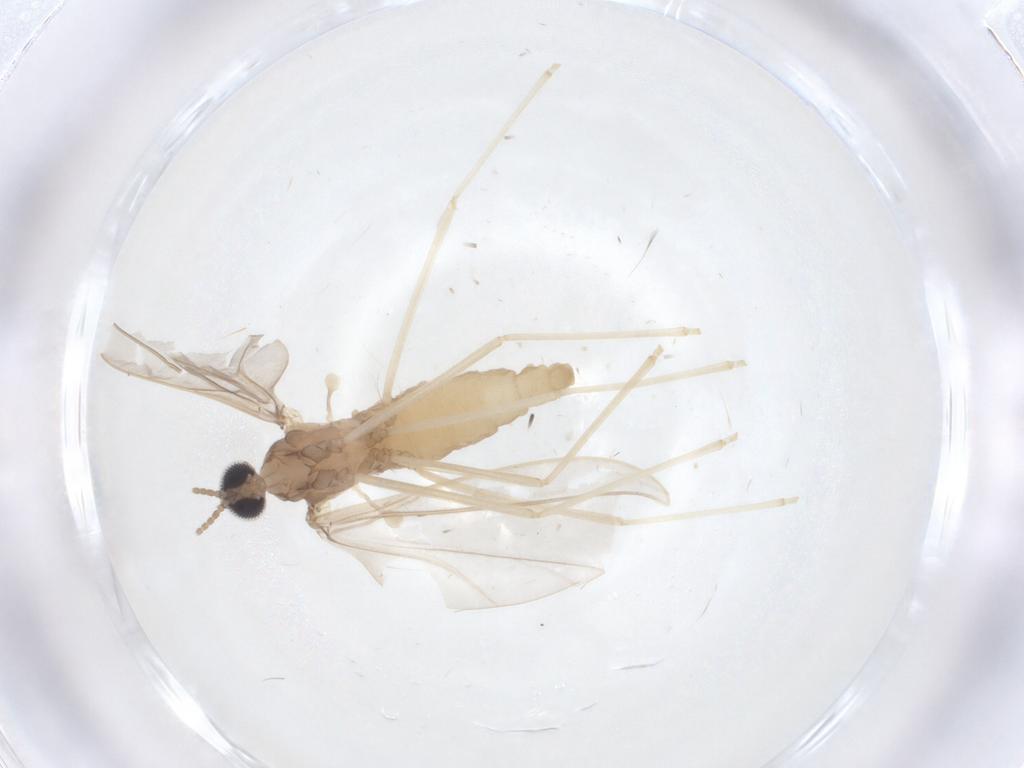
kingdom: Animalia
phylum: Arthropoda
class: Insecta
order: Diptera
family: Cecidomyiidae
